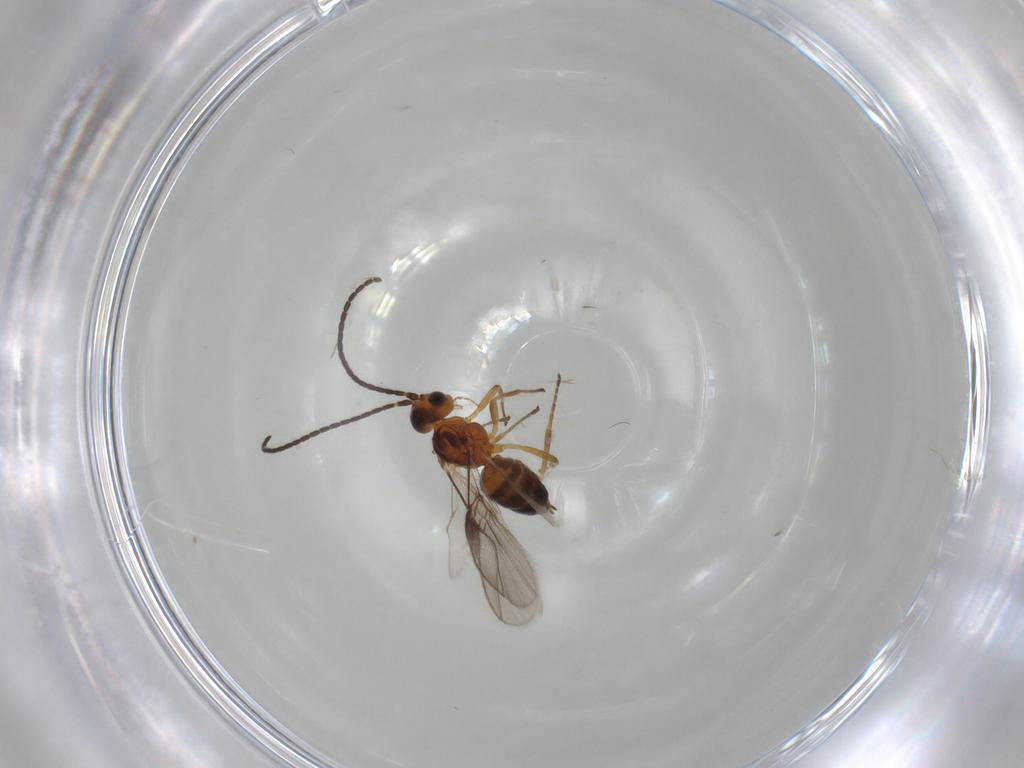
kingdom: Animalia
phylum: Arthropoda
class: Insecta
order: Hymenoptera
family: Braconidae
